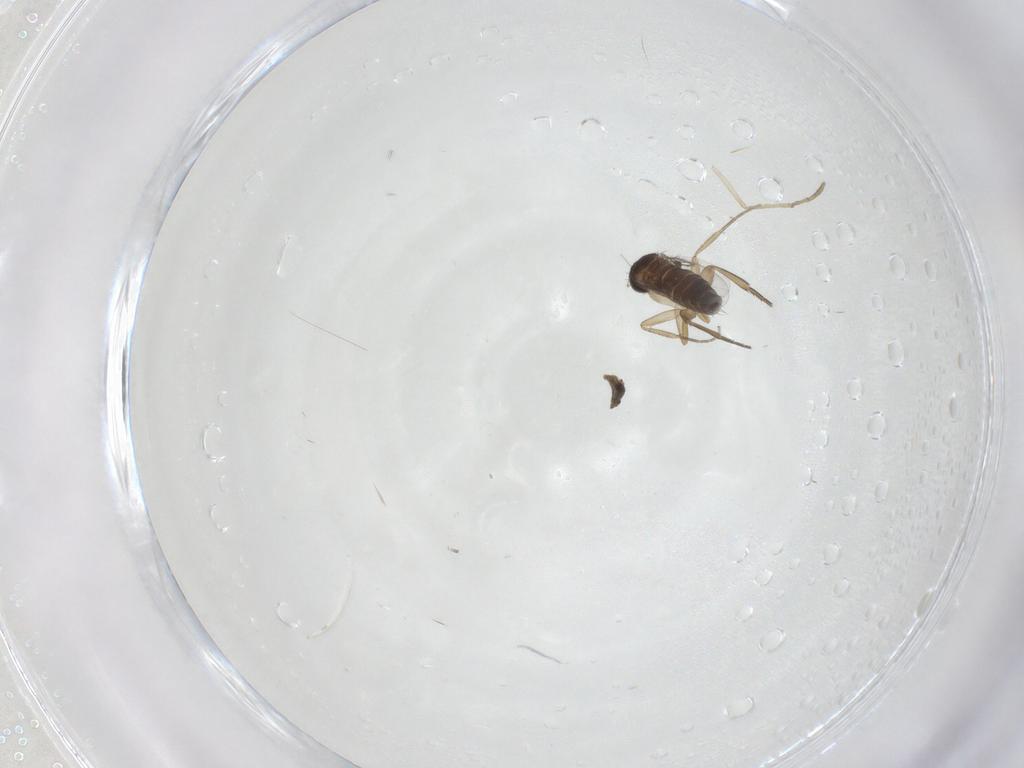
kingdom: Animalia
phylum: Arthropoda
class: Insecta
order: Diptera
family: Phoridae
